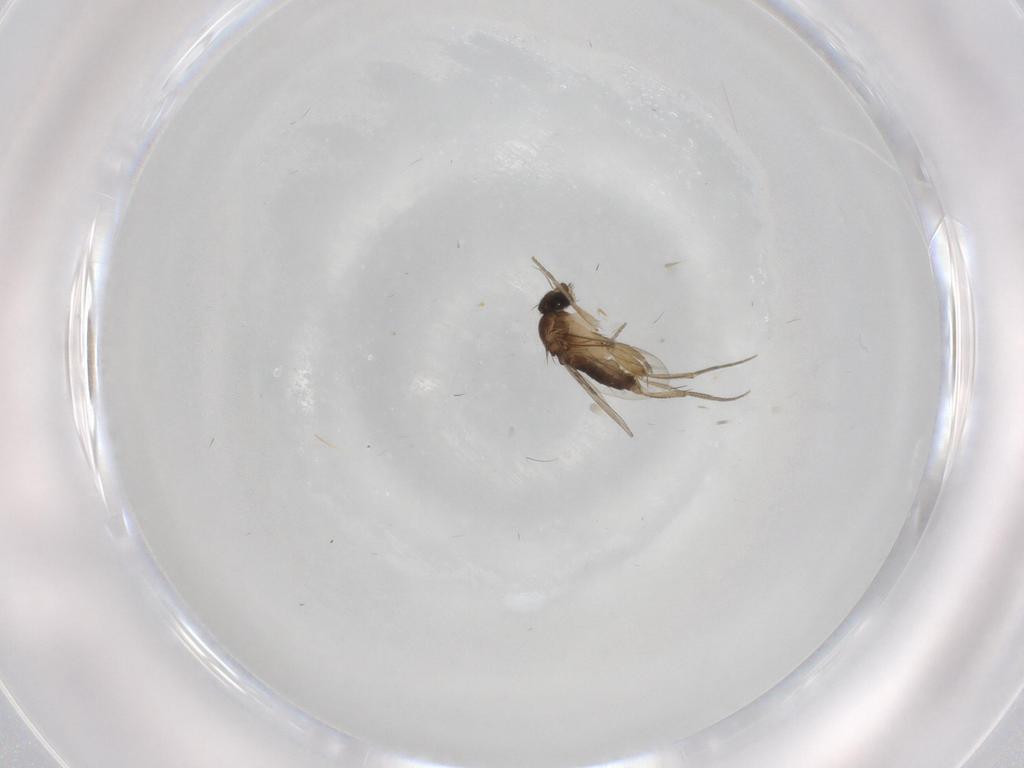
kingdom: Animalia
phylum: Arthropoda
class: Insecta
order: Diptera
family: Phoridae
